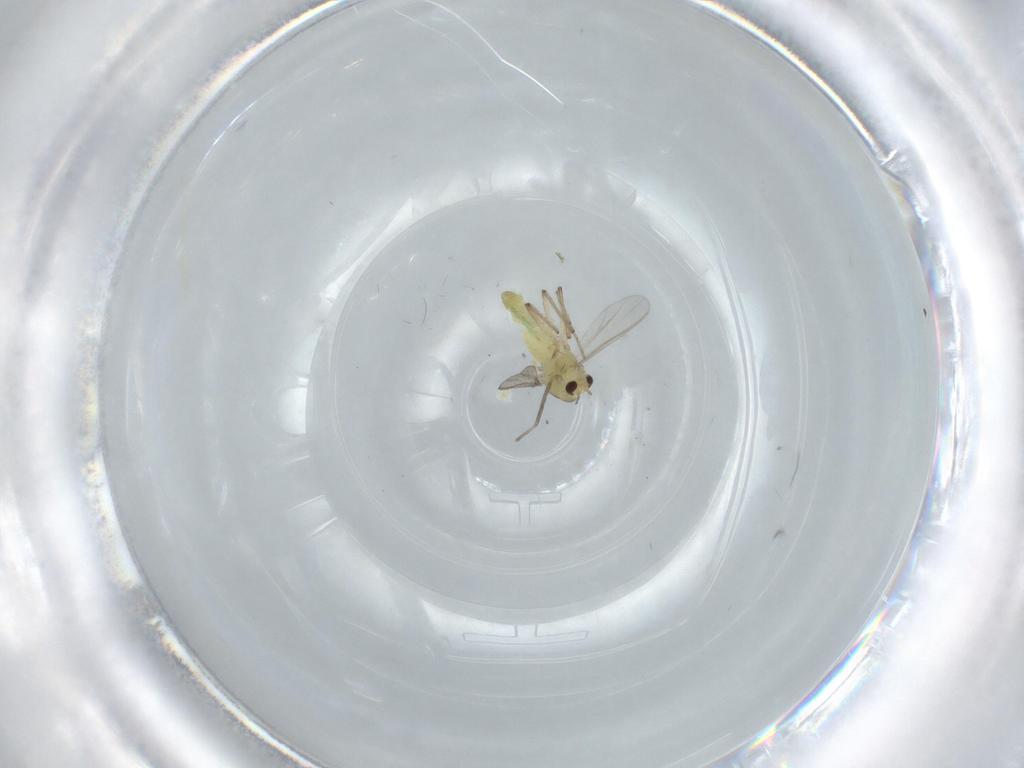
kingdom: Animalia
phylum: Arthropoda
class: Insecta
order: Diptera
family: Chironomidae
